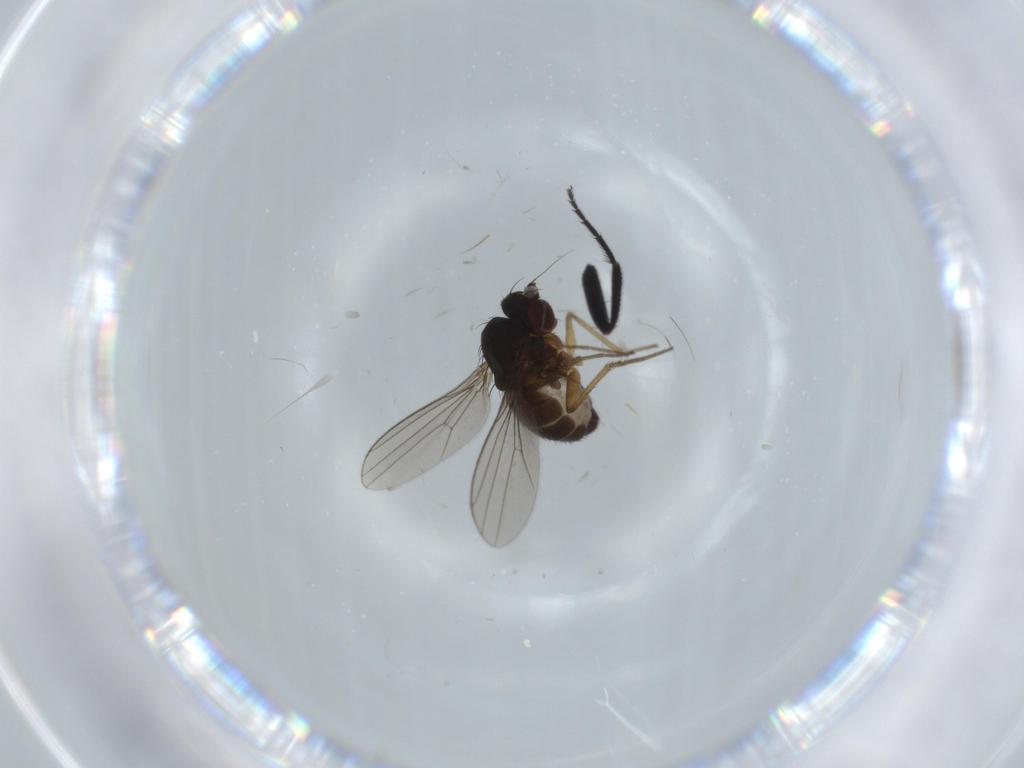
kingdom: Animalia
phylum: Arthropoda
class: Insecta
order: Diptera
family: Dolichopodidae
